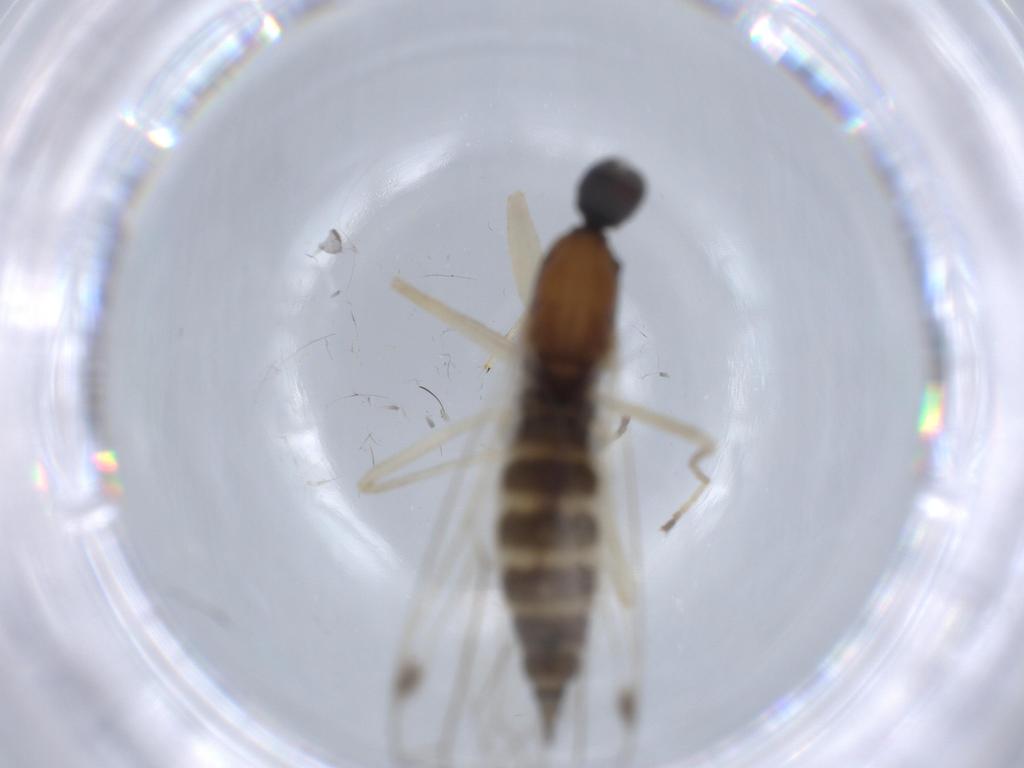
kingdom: Animalia
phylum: Arthropoda
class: Insecta
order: Diptera
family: Empididae
